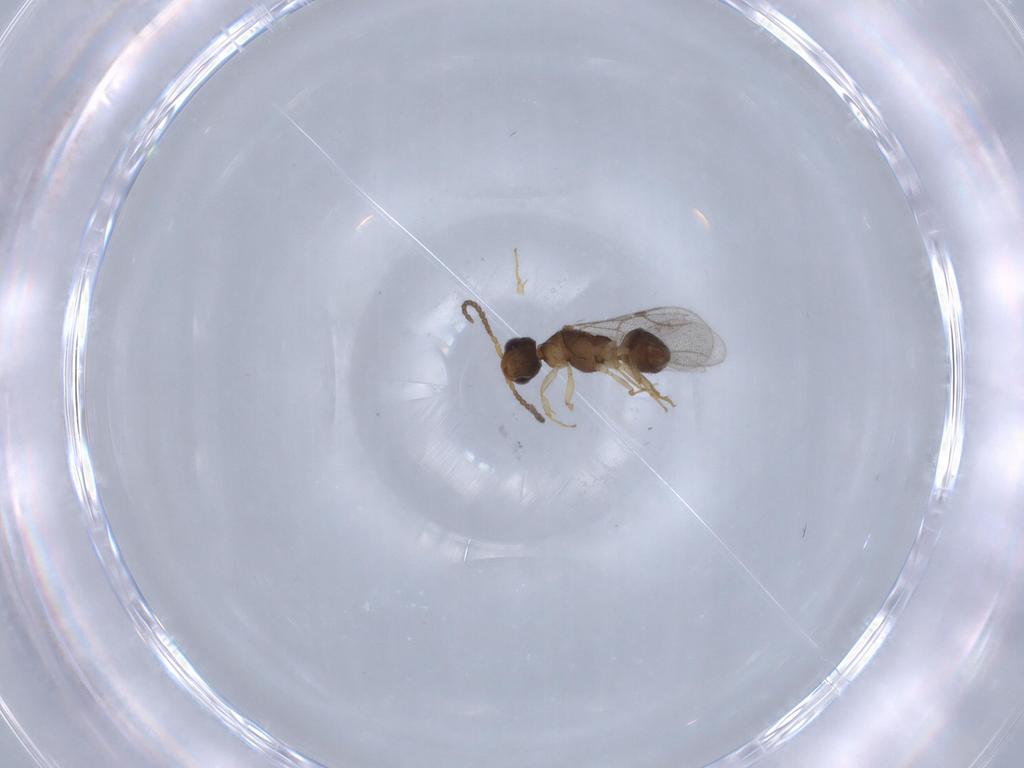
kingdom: Animalia
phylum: Arthropoda
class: Insecta
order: Hymenoptera
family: Bethylidae
